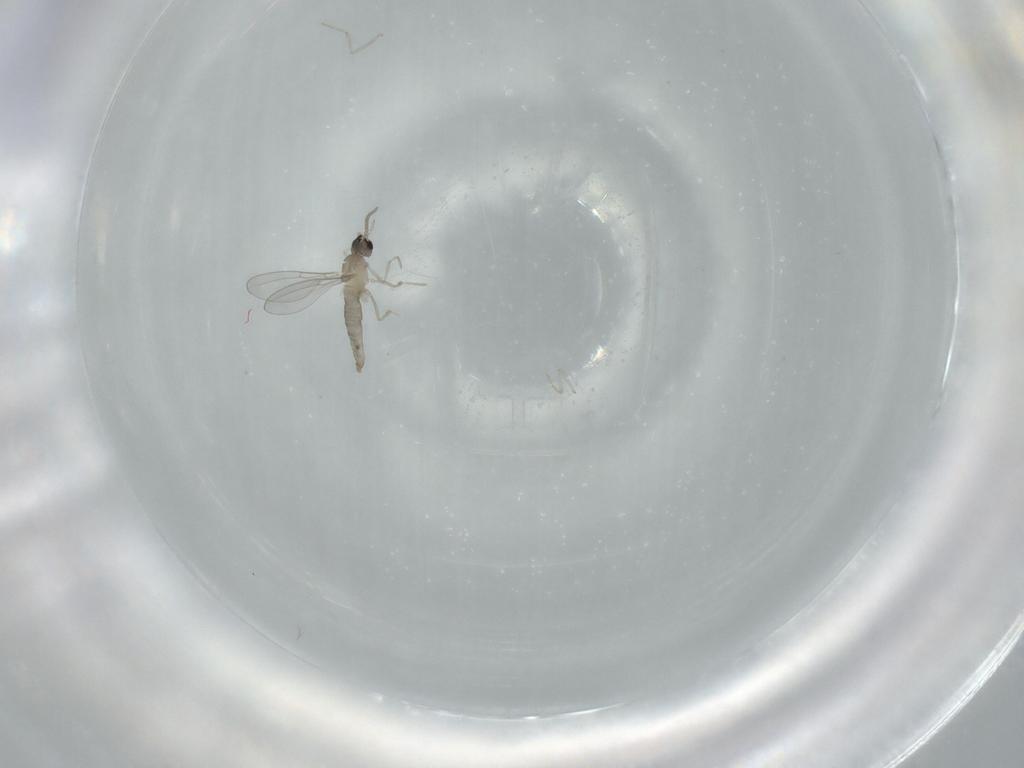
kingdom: Animalia
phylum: Arthropoda
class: Insecta
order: Diptera
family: Cecidomyiidae
